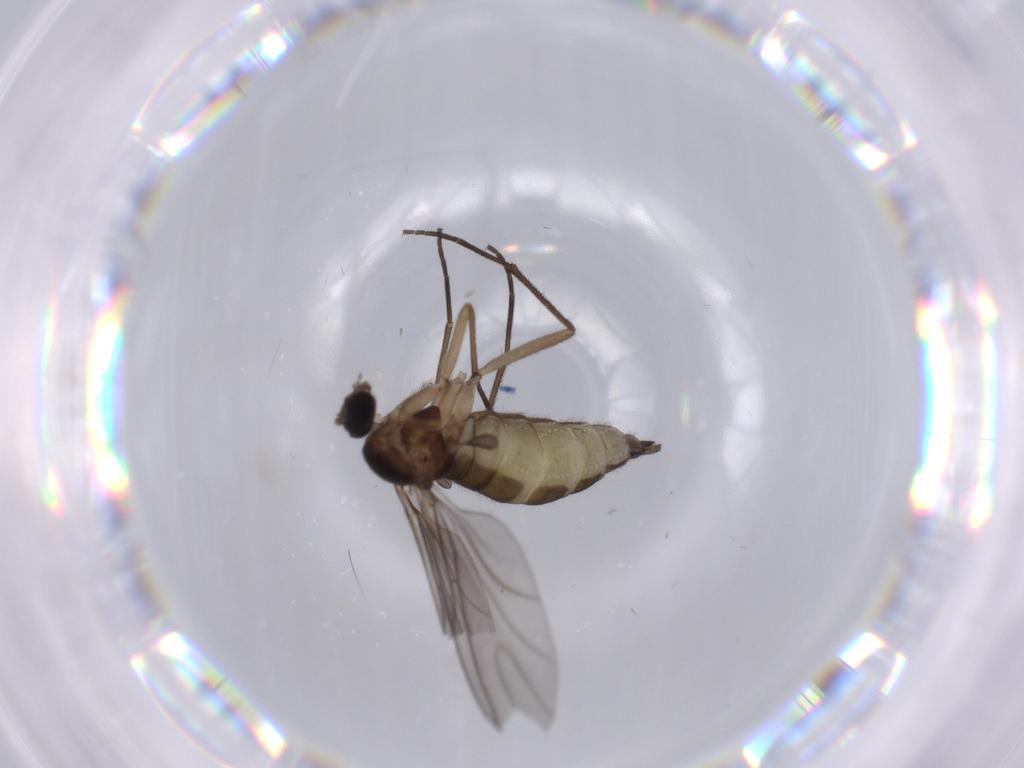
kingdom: Animalia
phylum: Arthropoda
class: Insecta
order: Diptera
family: Sciaridae
